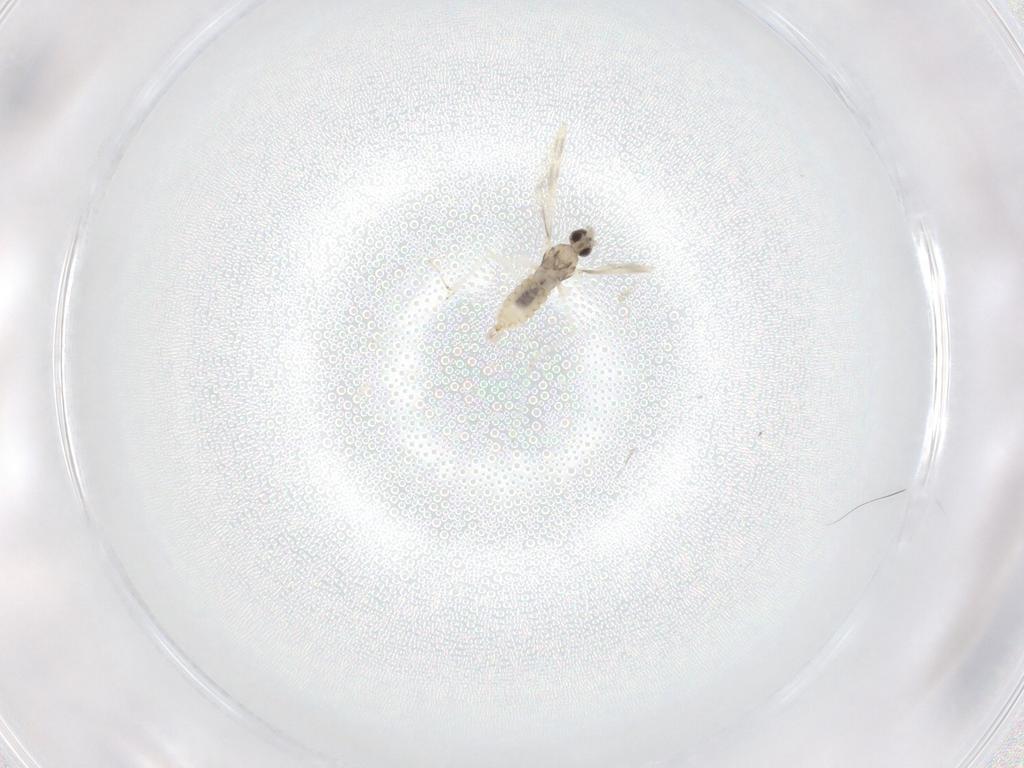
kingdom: Animalia
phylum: Arthropoda
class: Insecta
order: Diptera
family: Cecidomyiidae
